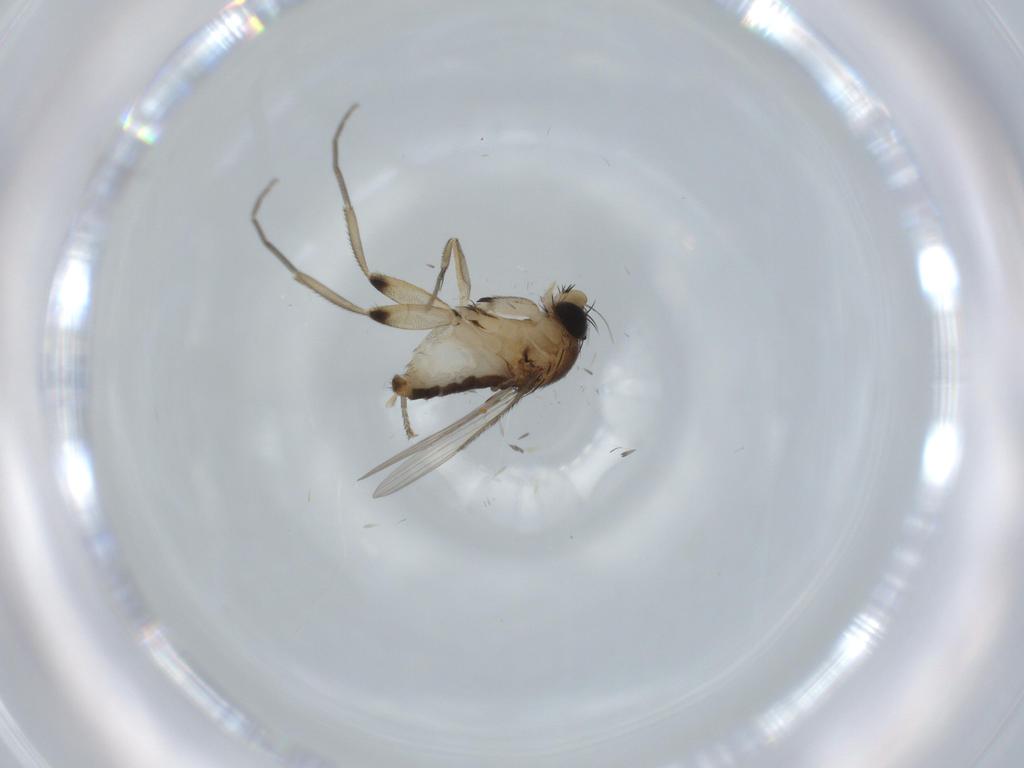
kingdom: Animalia
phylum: Arthropoda
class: Insecta
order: Diptera
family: Phoridae
